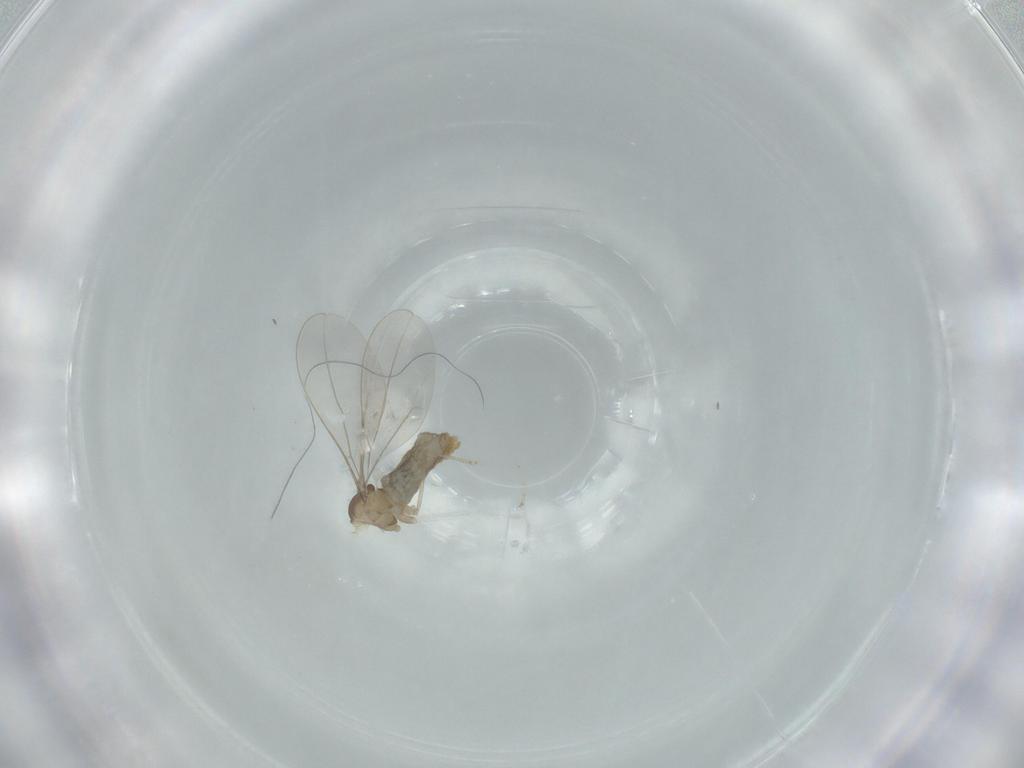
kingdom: Animalia
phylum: Arthropoda
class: Insecta
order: Diptera
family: Cecidomyiidae
